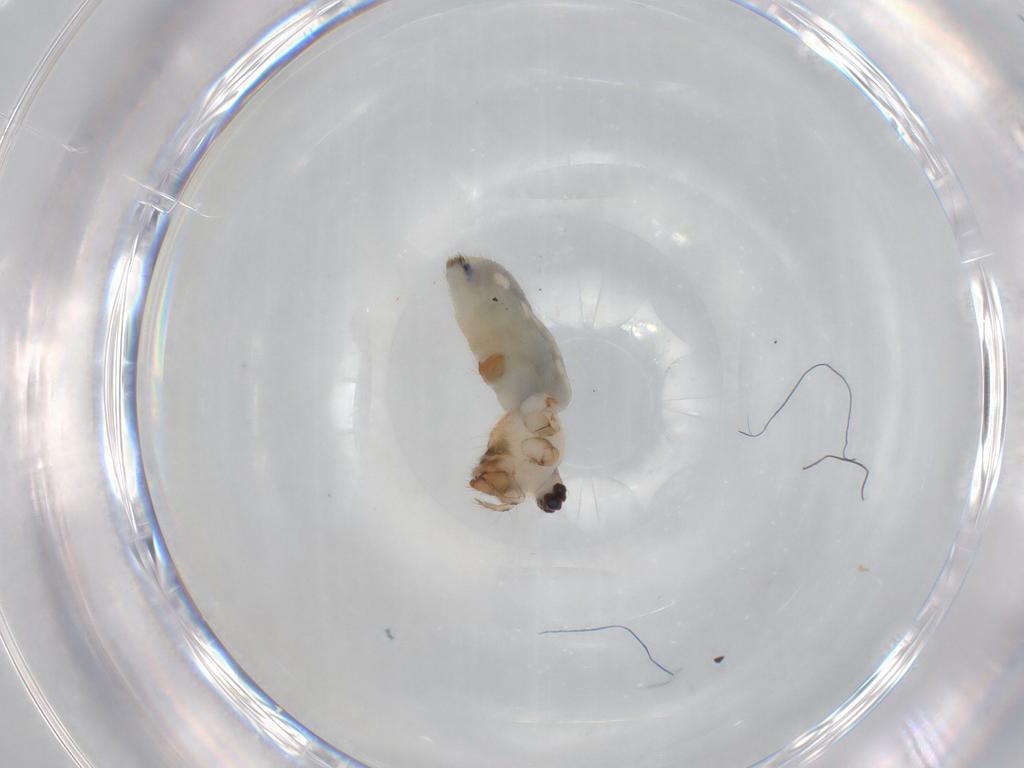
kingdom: Animalia
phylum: Arthropoda
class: Arachnida
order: Araneae
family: Pholcidae
